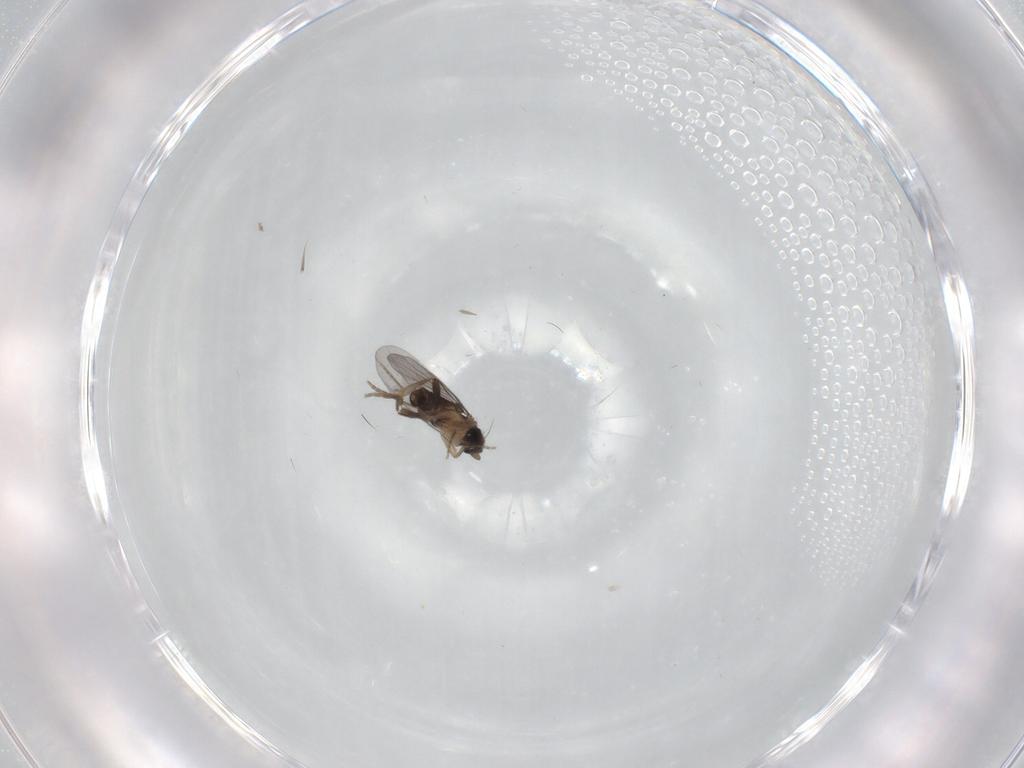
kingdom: Animalia
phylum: Arthropoda
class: Insecta
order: Diptera
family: Cecidomyiidae
